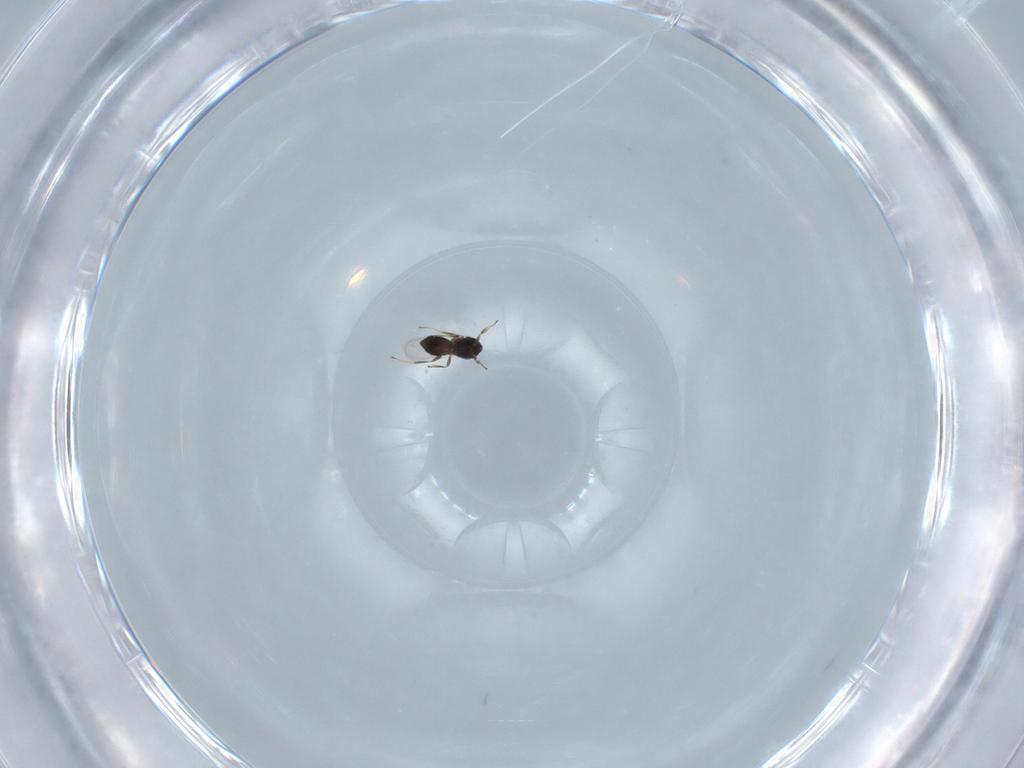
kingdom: Animalia
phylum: Arthropoda
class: Insecta
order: Hymenoptera
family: Scelionidae
